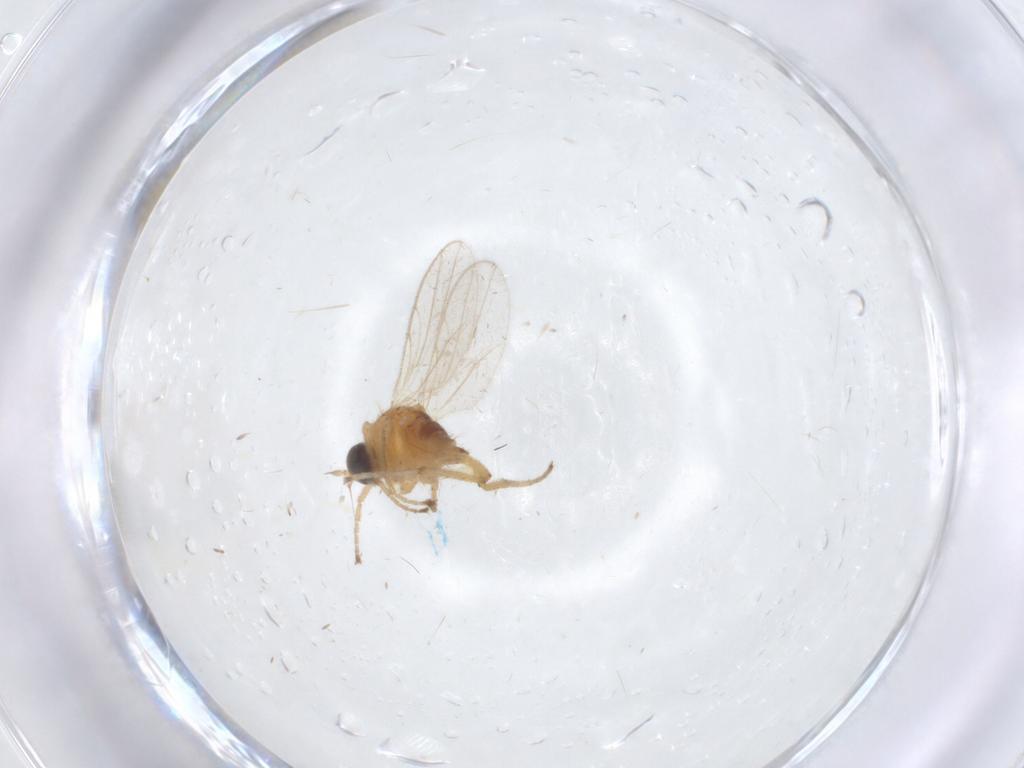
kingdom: Animalia
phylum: Arthropoda
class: Insecta
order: Diptera
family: Hybotidae
